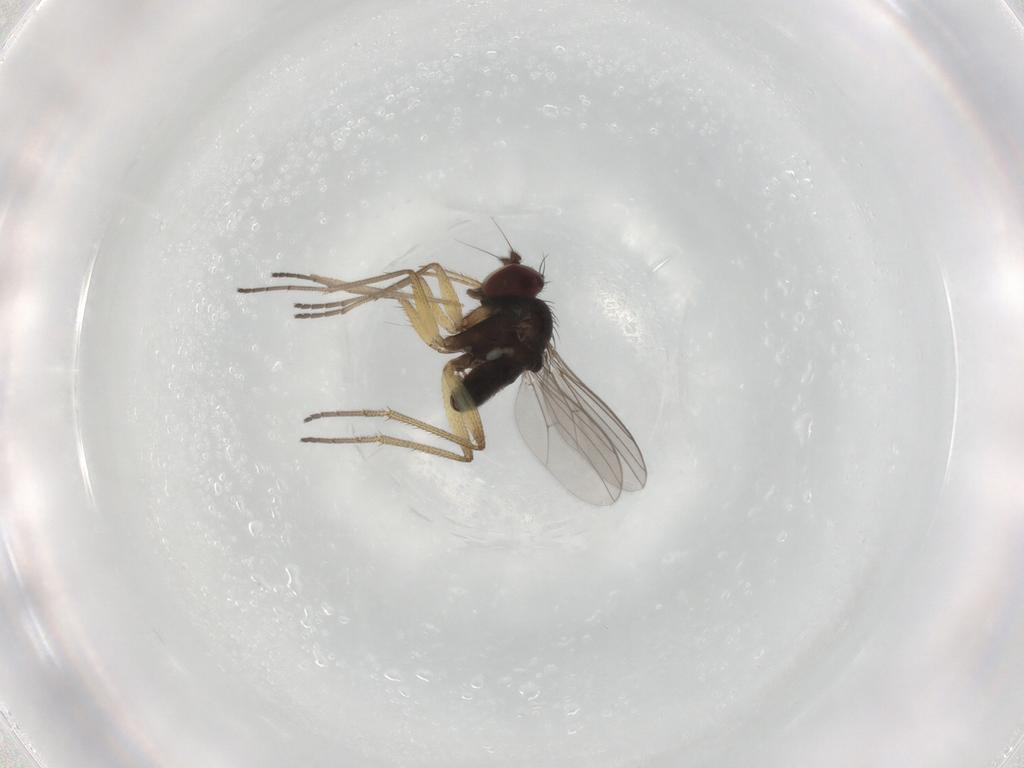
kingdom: Animalia
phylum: Arthropoda
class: Insecta
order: Diptera
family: Dolichopodidae
